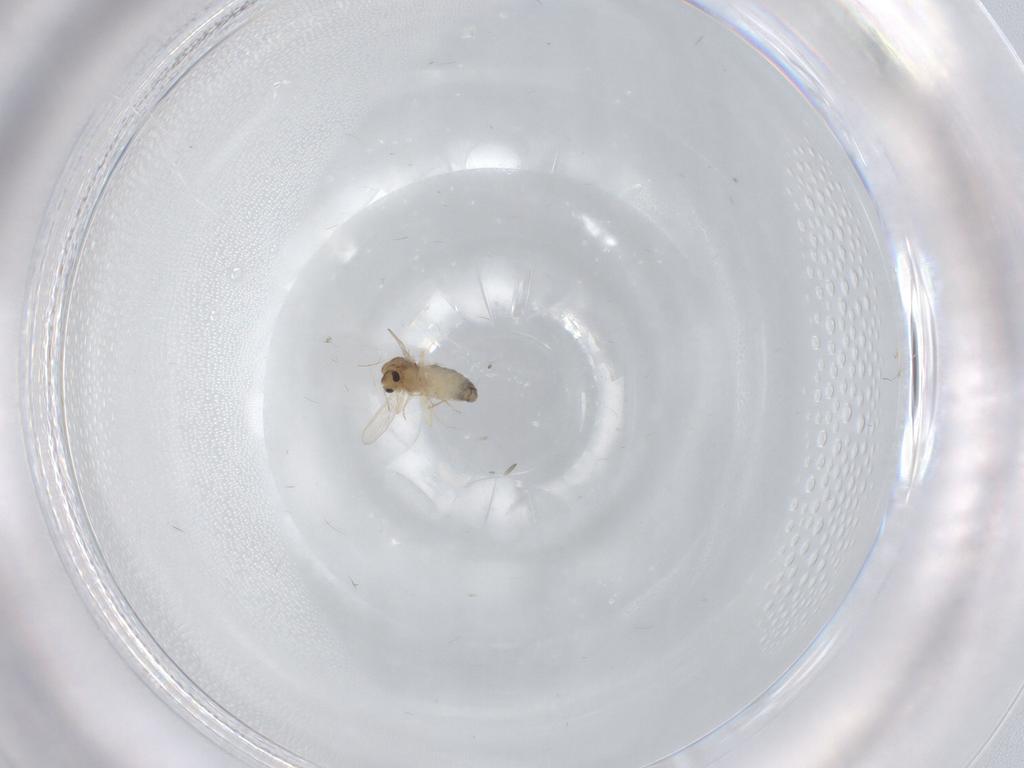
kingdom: Animalia
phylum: Arthropoda
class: Insecta
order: Diptera
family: Chironomidae
